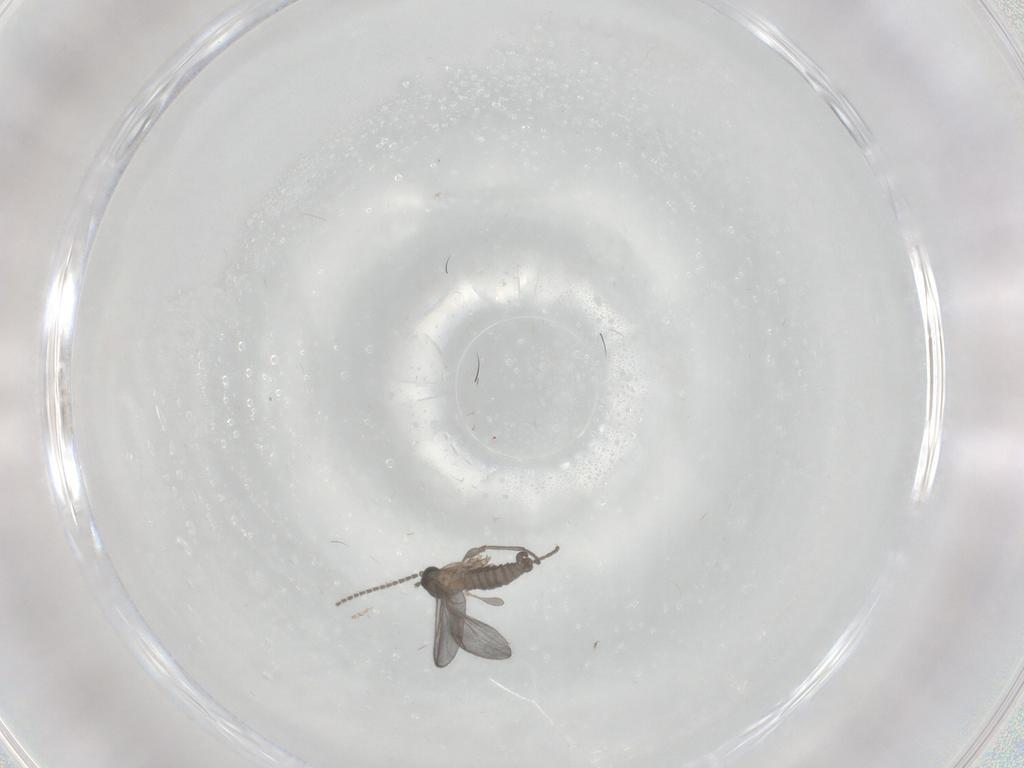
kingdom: Animalia
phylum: Arthropoda
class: Insecta
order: Diptera
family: Sciaridae
